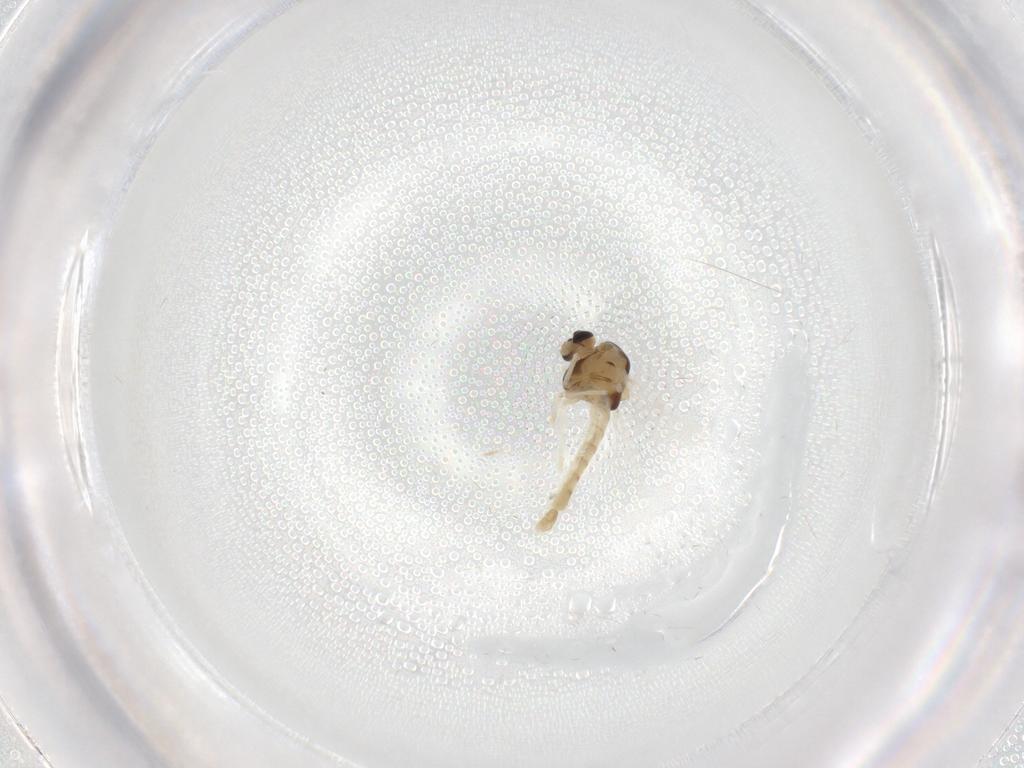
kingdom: Animalia
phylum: Arthropoda
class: Insecta
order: Diptera
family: Chironomidae
